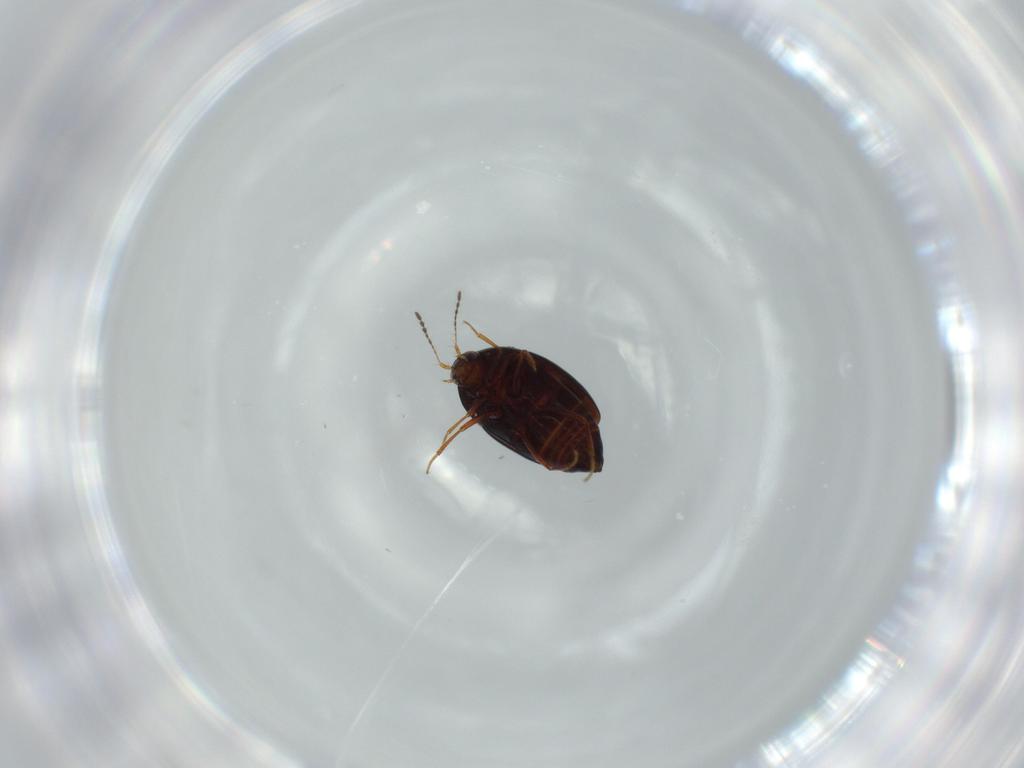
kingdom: Animalia
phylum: Arthropoda
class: Insecta
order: Coleoptera
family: Staphylinidae
